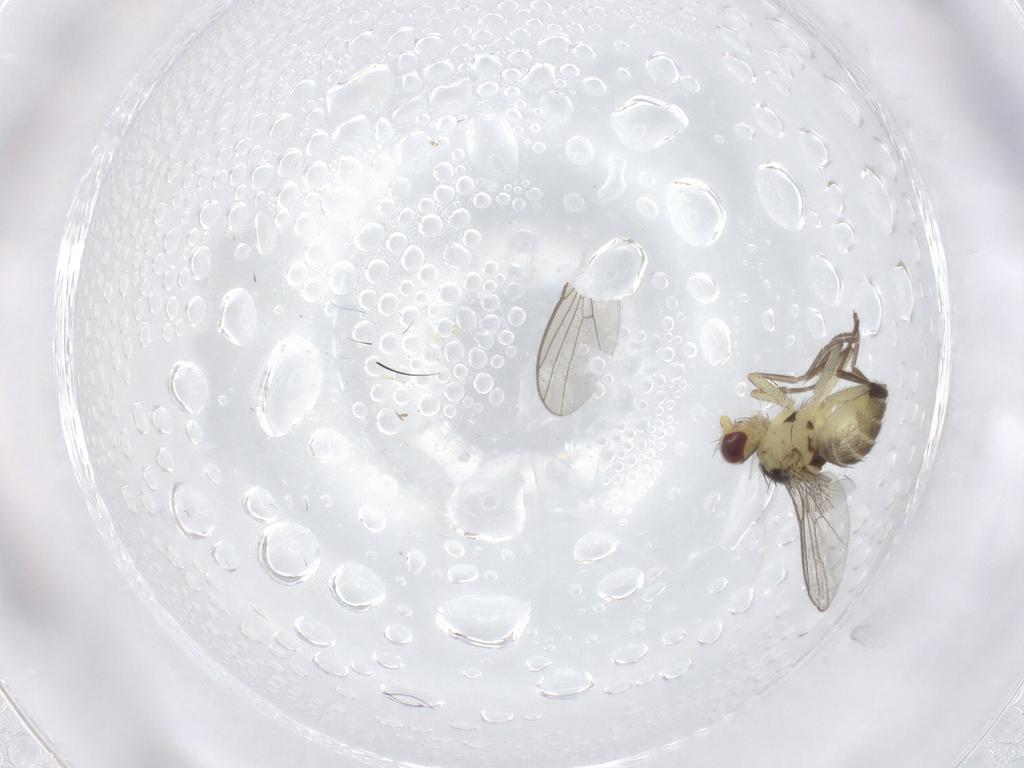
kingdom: Animalia
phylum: Arthropoda
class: Insecta
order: Diptera
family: Agromyzidae
